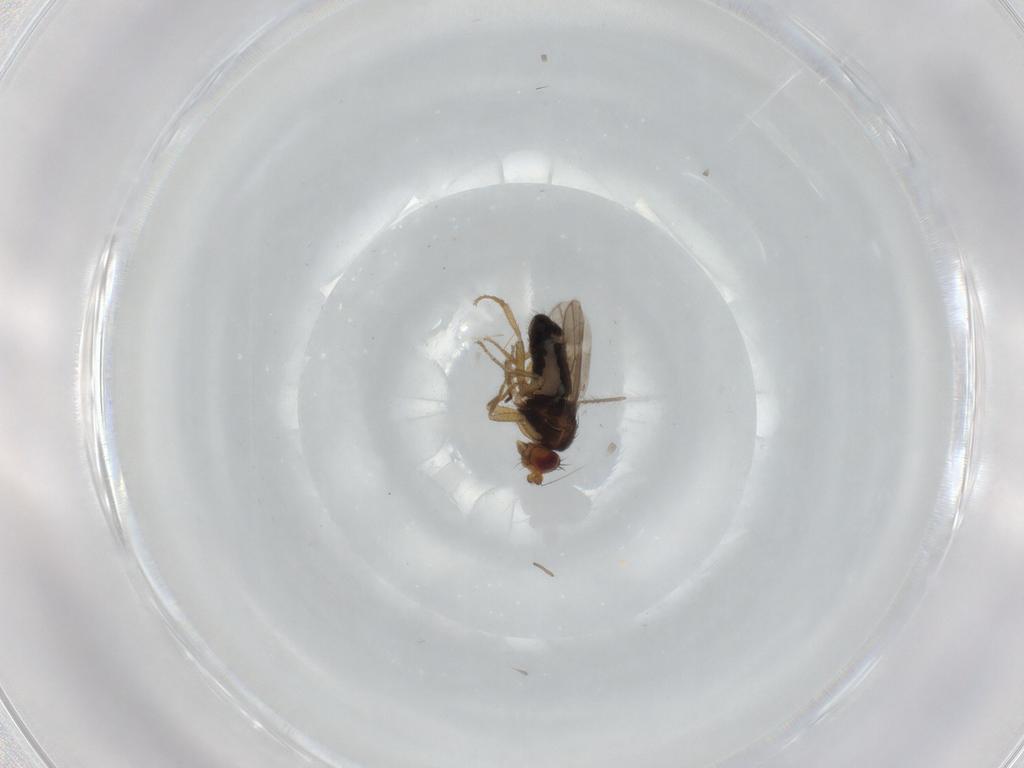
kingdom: Animalia
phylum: Arthropoda
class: Insecta
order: Diptera
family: Sphaeroceridae
